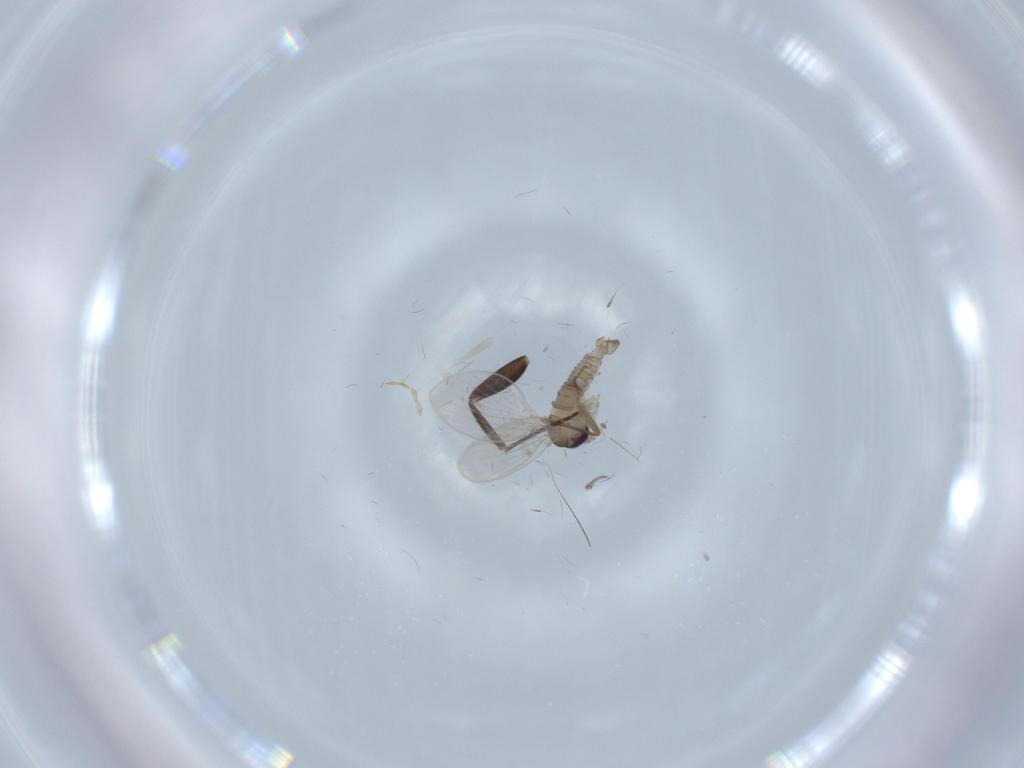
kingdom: Animalia
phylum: Arthropoda
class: Insecta
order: Diptera
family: Psychodidae
